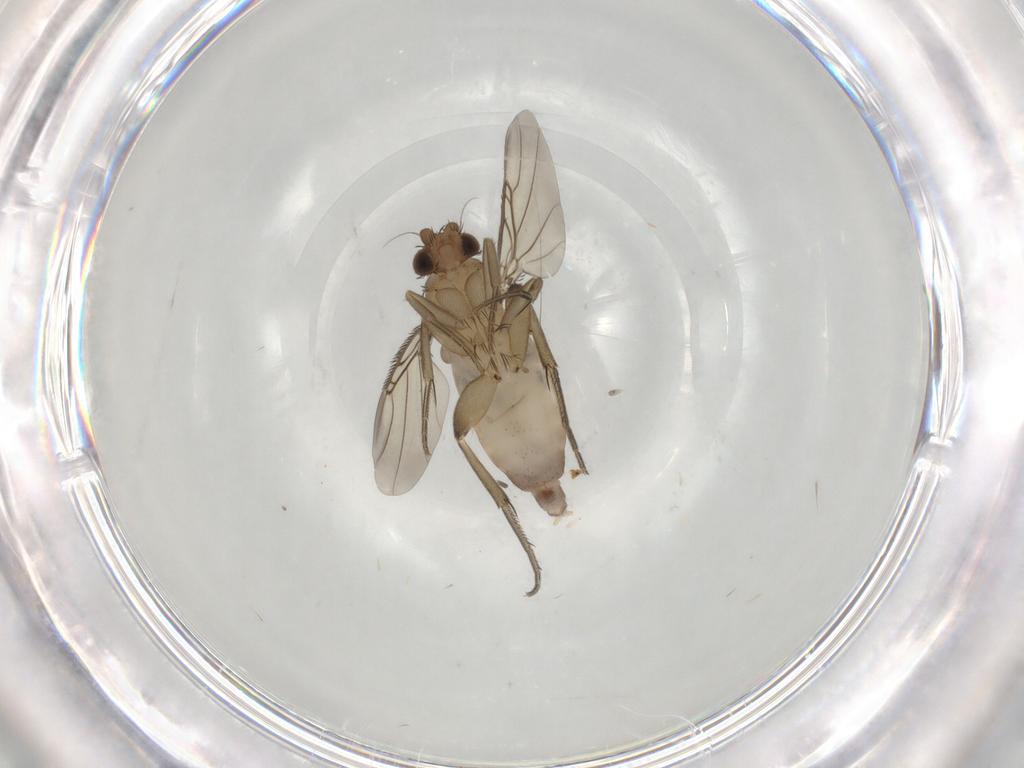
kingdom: Animalia
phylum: Arthropoda
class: Insecta
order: Diptera
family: Phoridae
